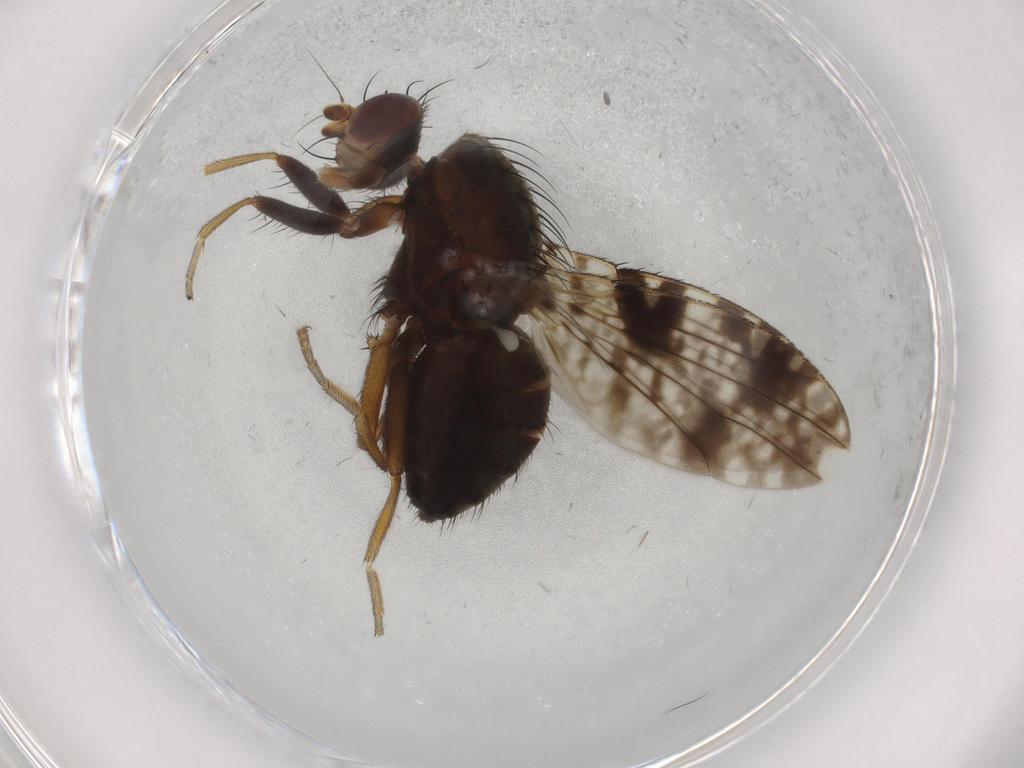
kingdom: Animalia
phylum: Arthropoda
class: Insecta
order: Diptera
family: Tephritidae
